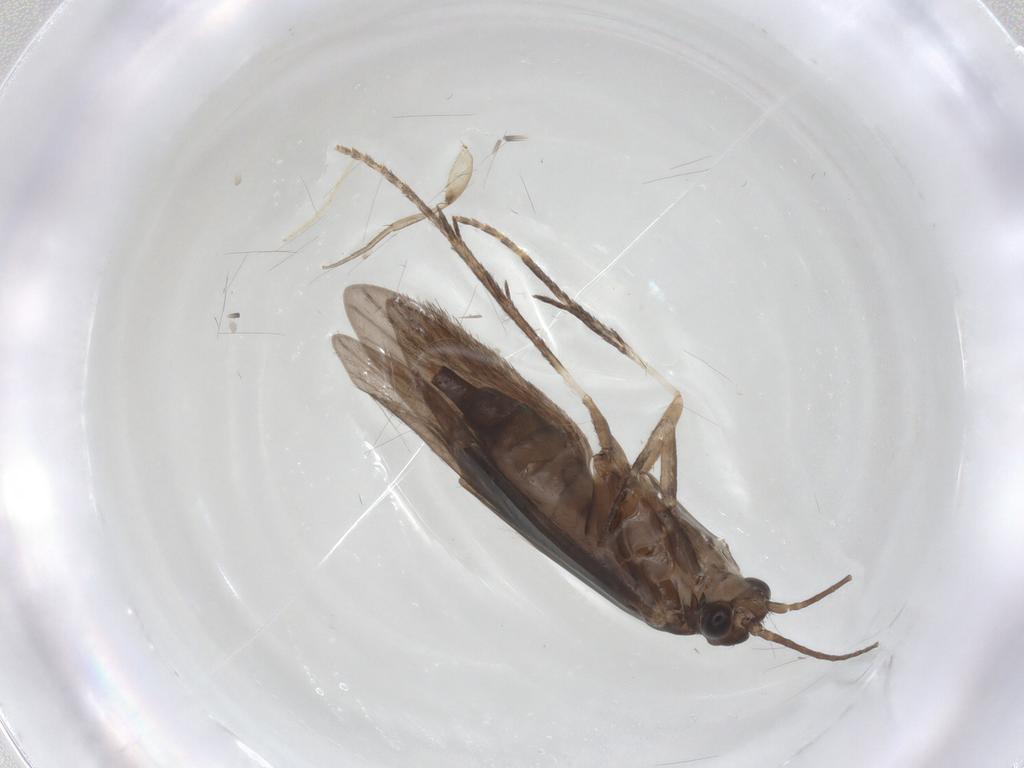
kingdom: Animalia
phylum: Arthropoda
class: Insecta
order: Trichoptera
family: Xiphocentronidae
